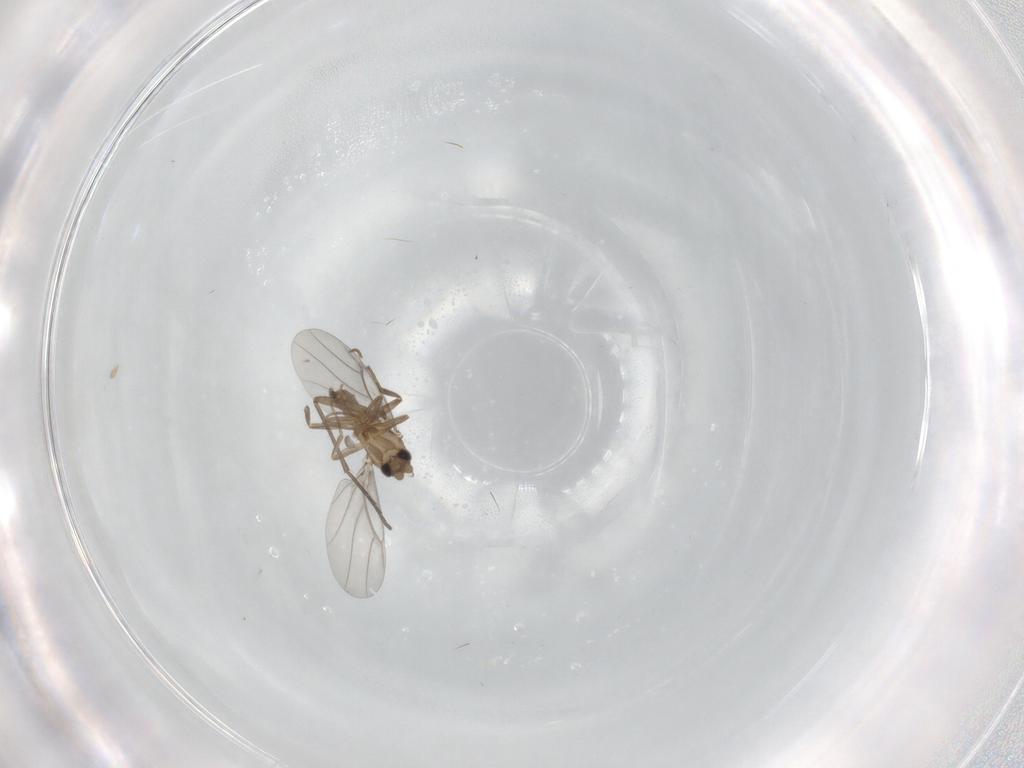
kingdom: Animalia
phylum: Arthropoda
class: Insecta
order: Diptera
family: Sciaridae
